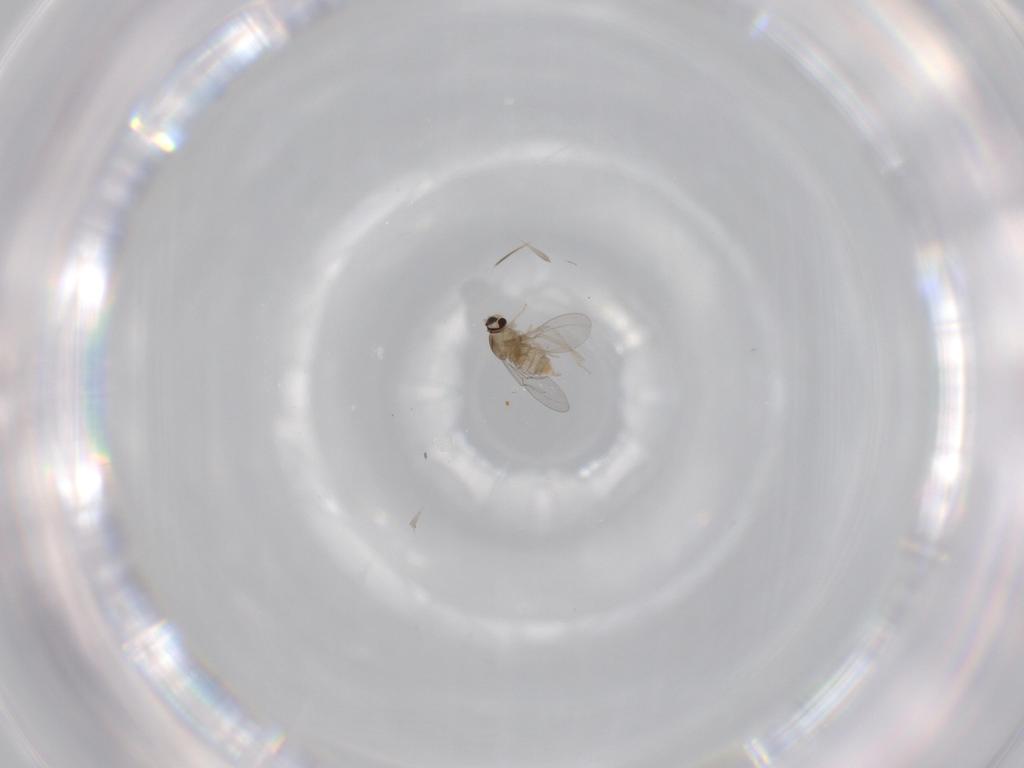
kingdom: Animalia
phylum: Arthropoda
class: Insecta
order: Diptera
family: Cecidomyiidae
